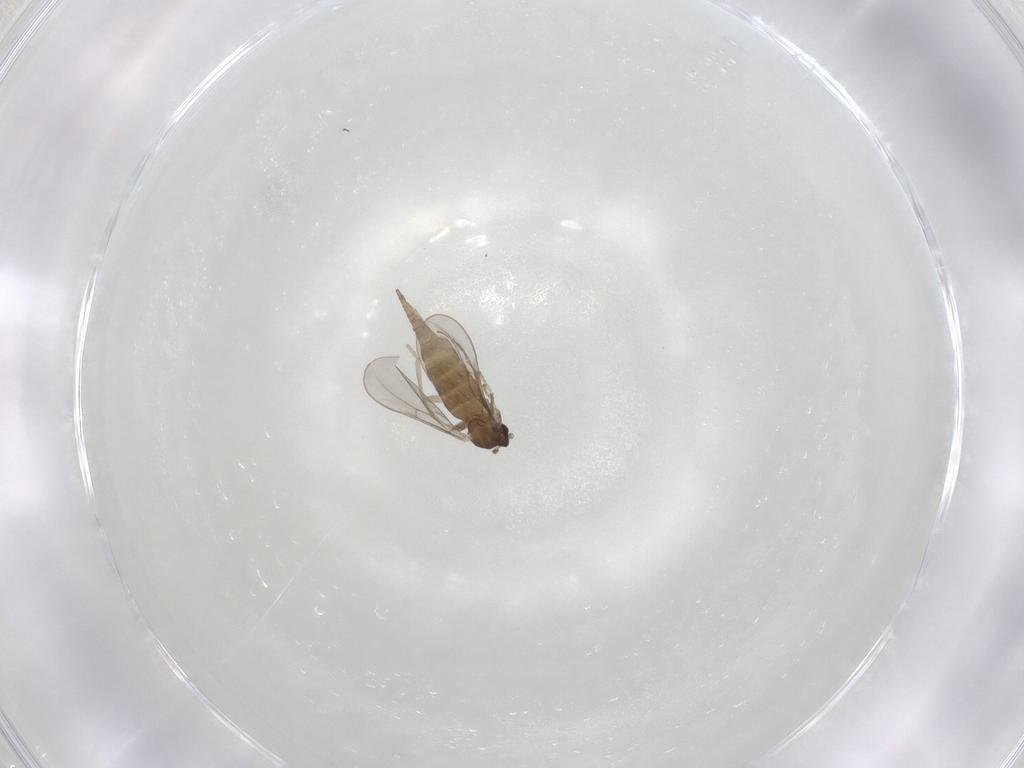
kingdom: Animalia
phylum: Arthropoda
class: Insecta
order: Diptera
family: Cecidomyiidae
